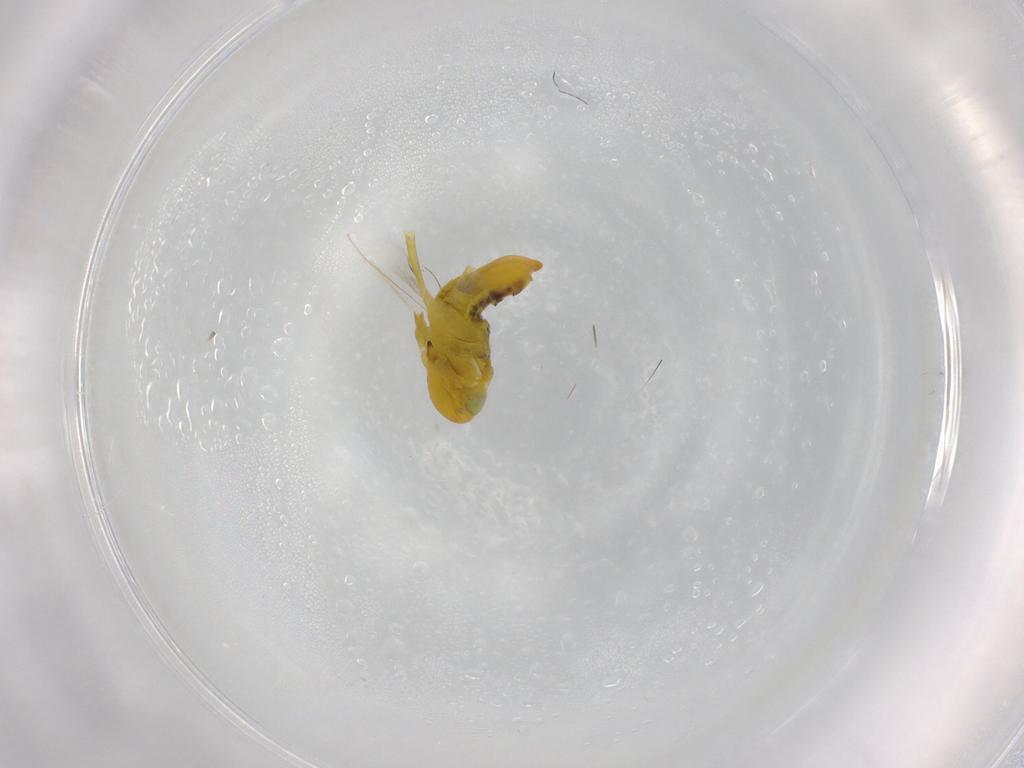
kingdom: Animalia
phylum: Arthropoda
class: Insecta
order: Hemiptera
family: Cicadellidae
